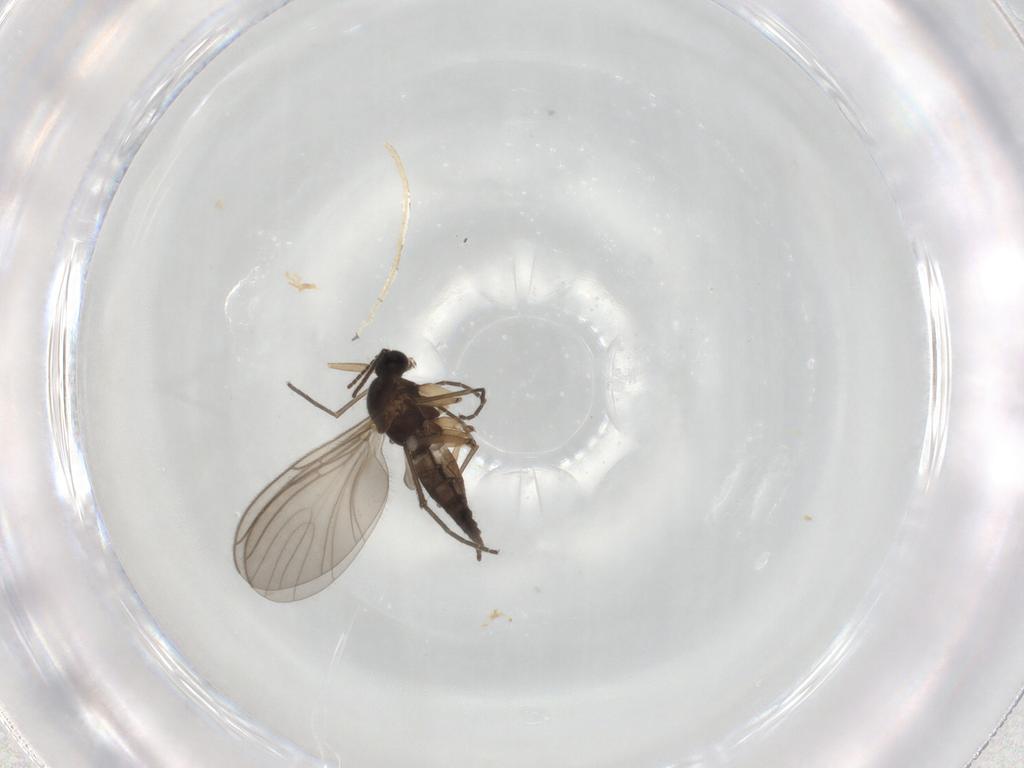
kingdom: Animalia
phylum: Arthropoda
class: Insecta
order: Diptera
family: Sciaridae
